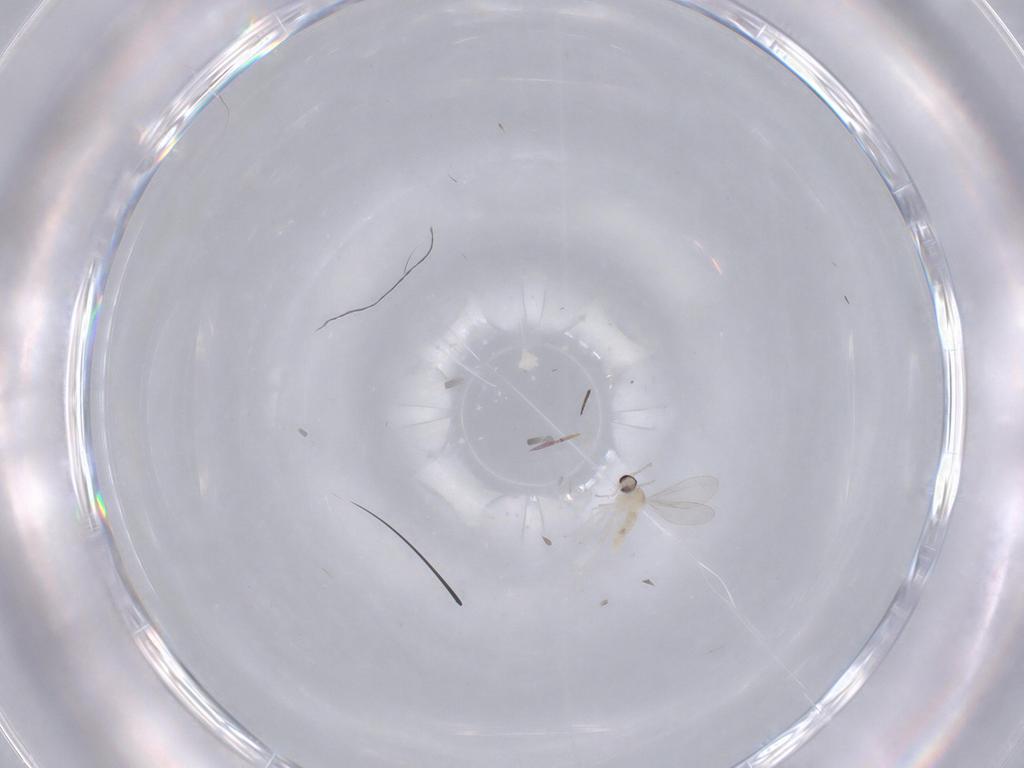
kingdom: Animalia
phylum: Arthropoda
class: Insecta
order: Diptera
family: Cecidomyiidae
